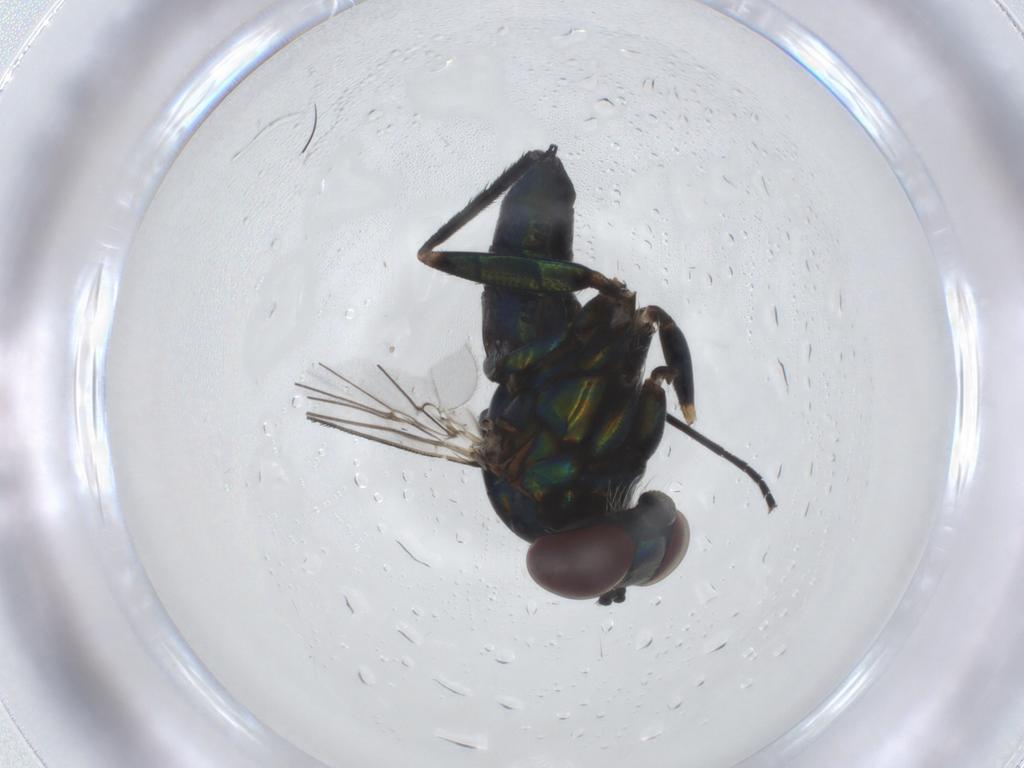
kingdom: Animalia
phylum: Arthropoda
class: Insecta
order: Diptera
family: Dolichopodidae
